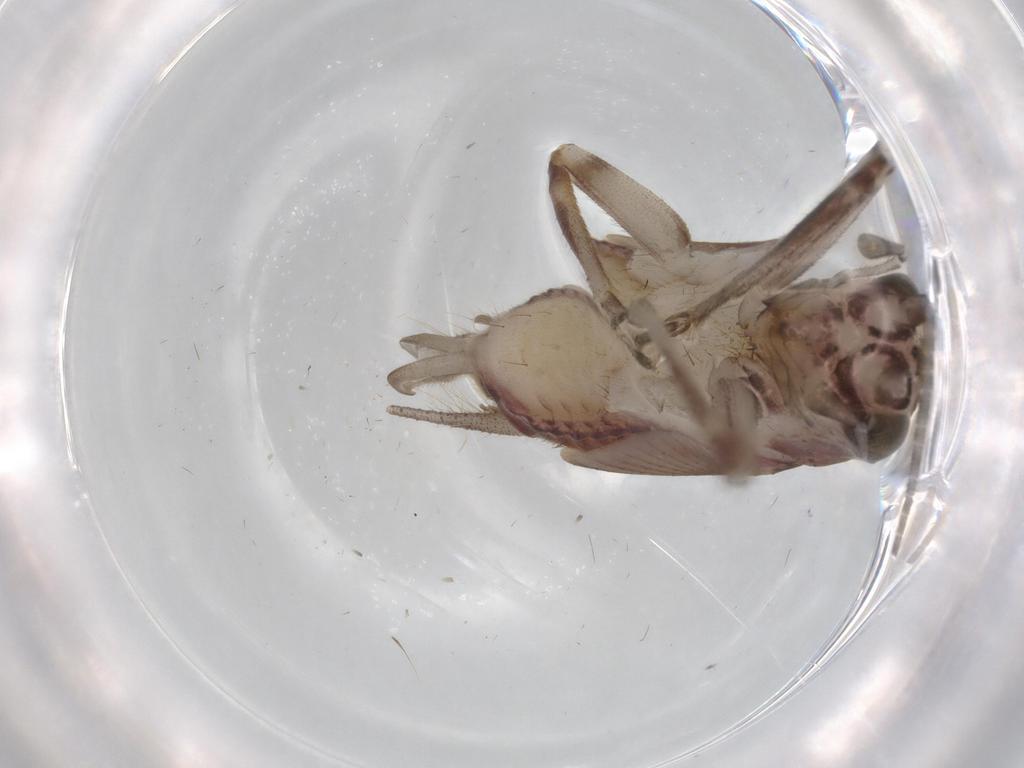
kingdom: Animalia
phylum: Arthropoda
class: Insecta
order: Orthoptera
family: Trigonidiidae
